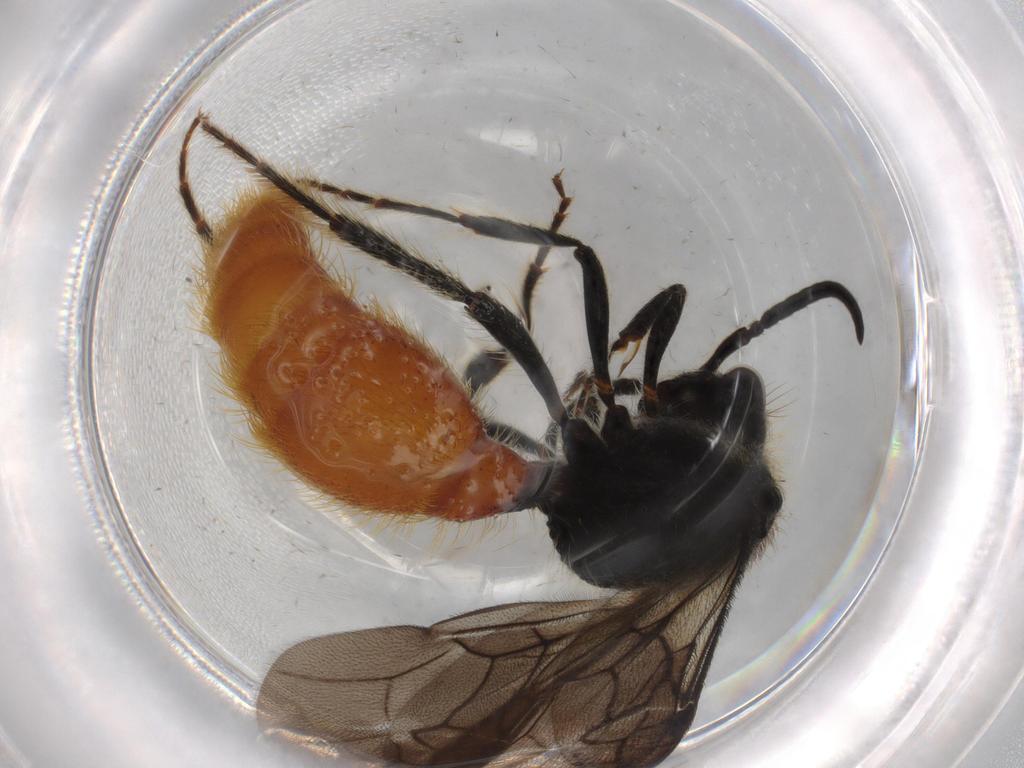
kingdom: Animalia
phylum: Arthropoda
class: Insecta
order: Hymenoptera
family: Mutillidae
